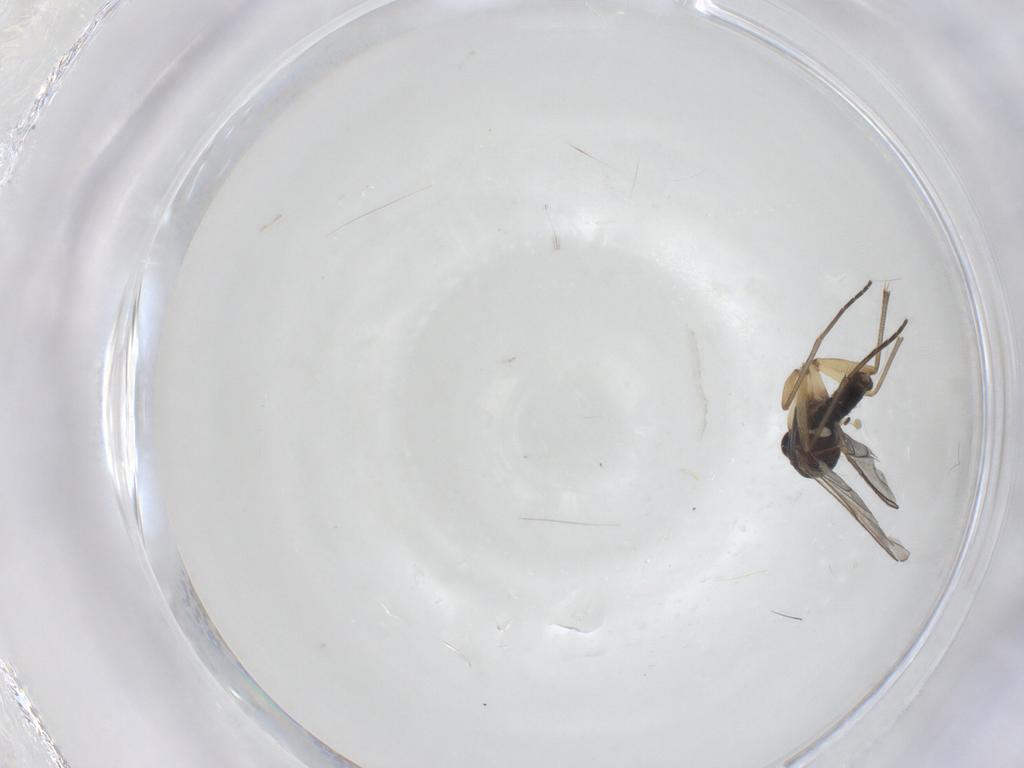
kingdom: Animalia
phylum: Arthropoda
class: Insecta
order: Diptera
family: Sciaridae
